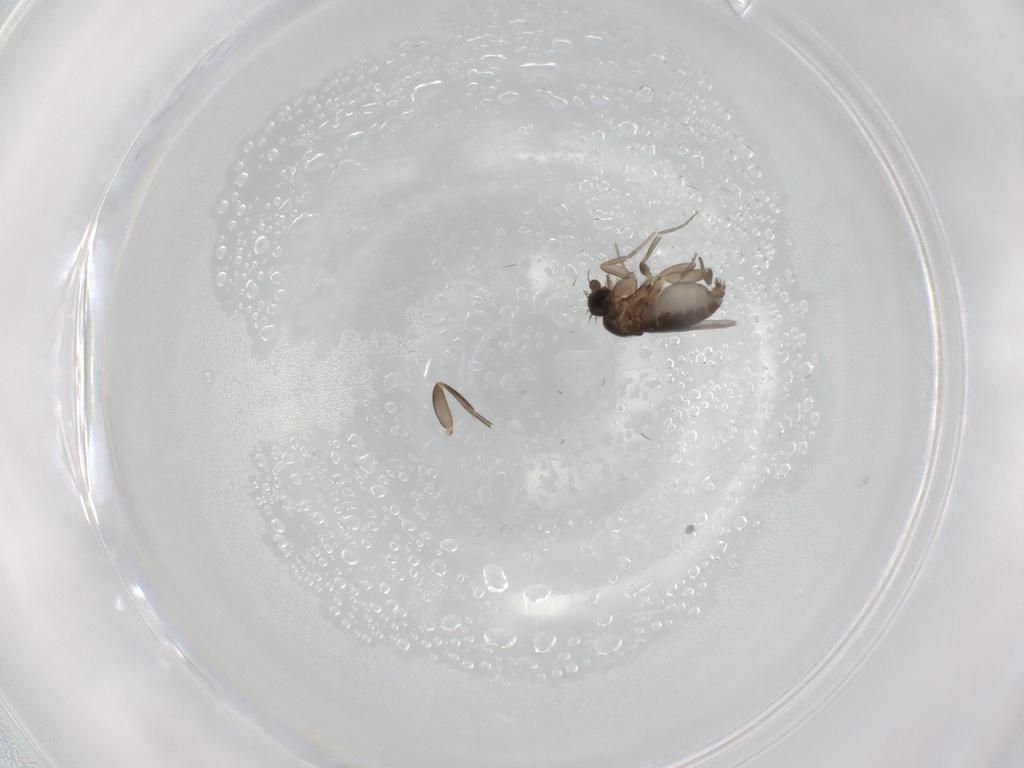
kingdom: Animalia
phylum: Arthropoda
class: Insecta
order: Diptera
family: Phoridae
